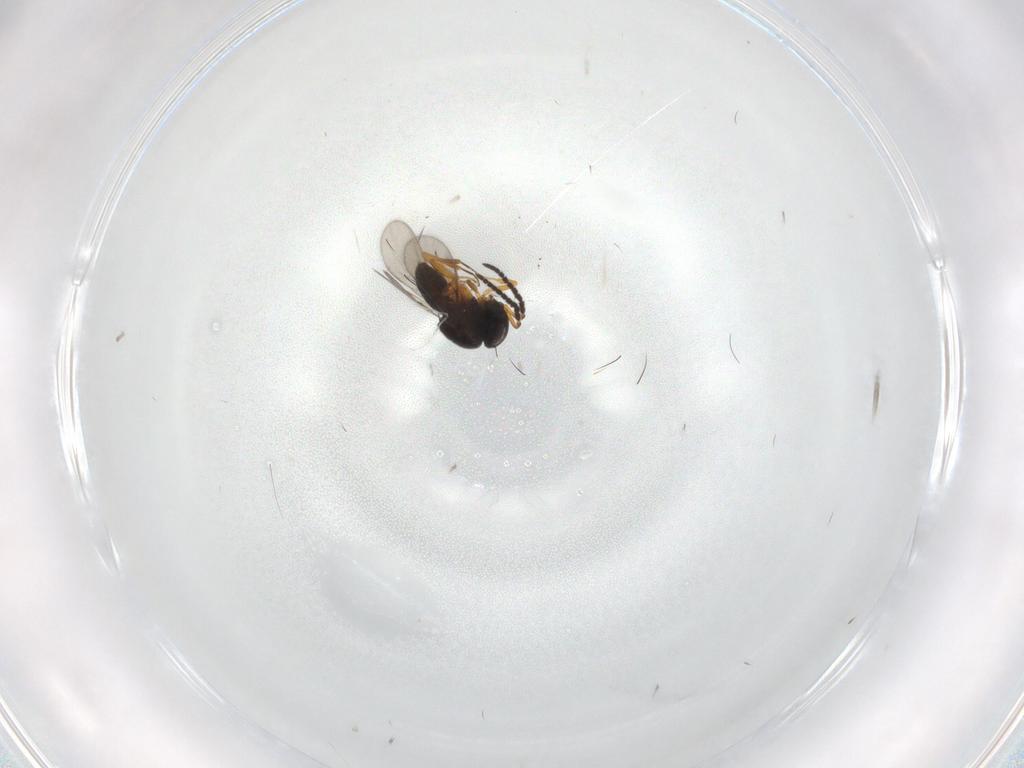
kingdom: Animalia
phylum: Arthropoda
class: Insecta
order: Hymenoptera
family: Scelionidae
